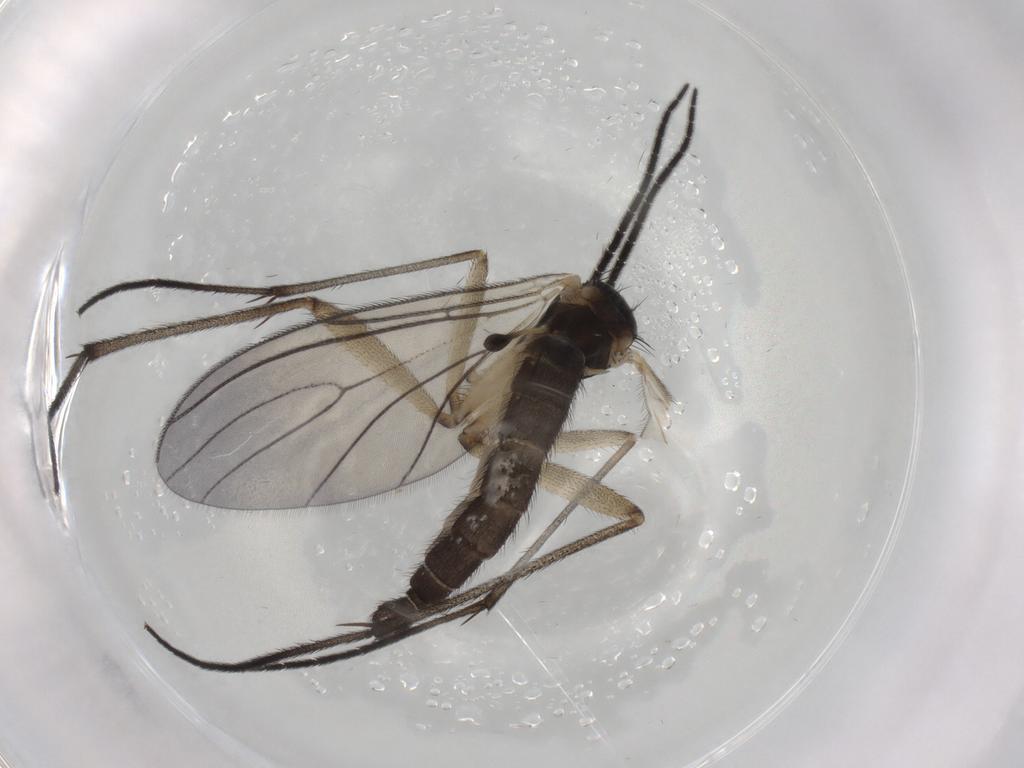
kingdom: Animalia
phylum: Arthropoda
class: Insecta
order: Diptera
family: Sciaridae
